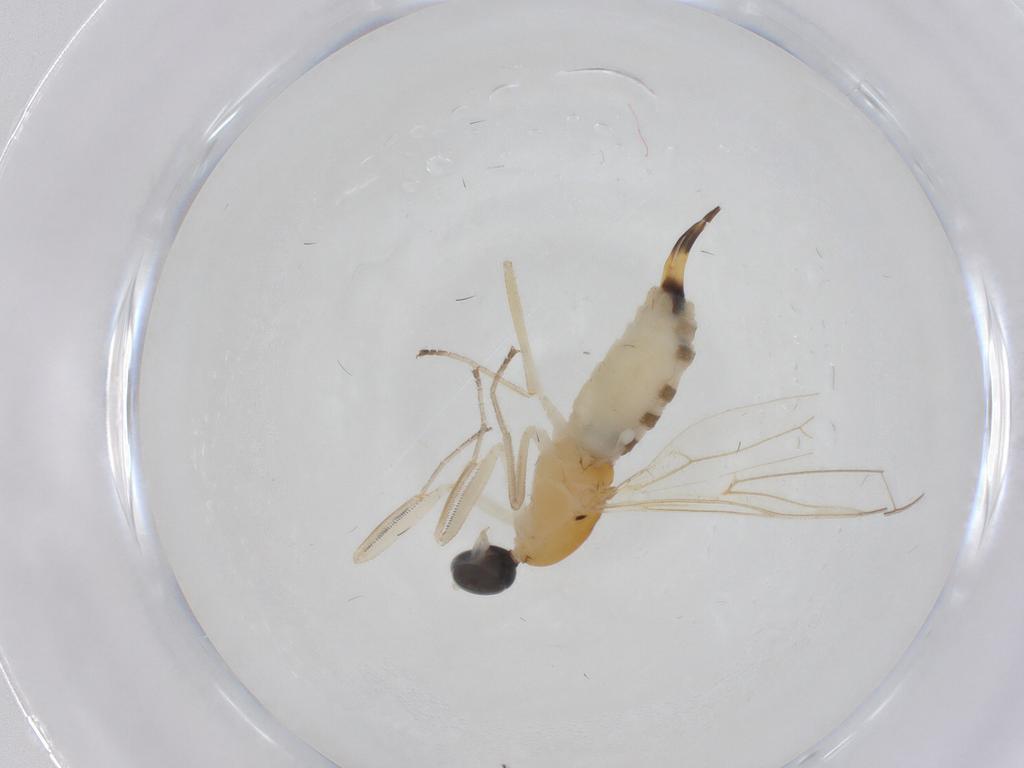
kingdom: Animalia
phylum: Arthropoda
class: Insecta
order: Diptera
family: Empididae
